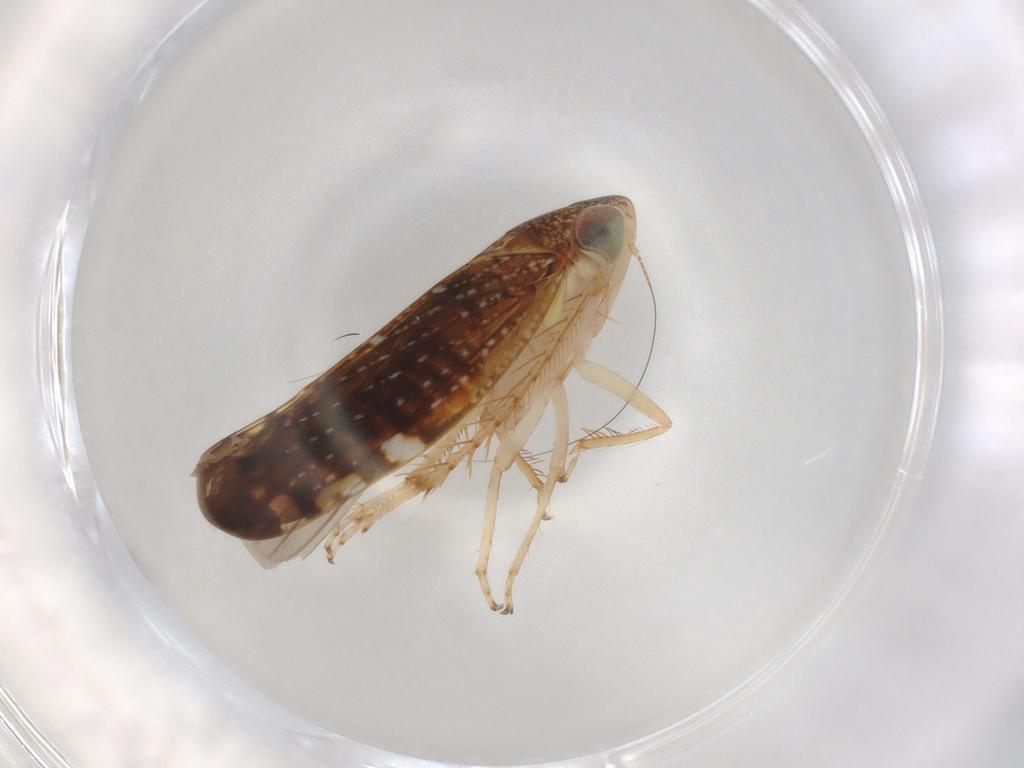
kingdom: Animalia
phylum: Arthropoda
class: Insecta
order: Hemiptera
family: Cicadellidae
